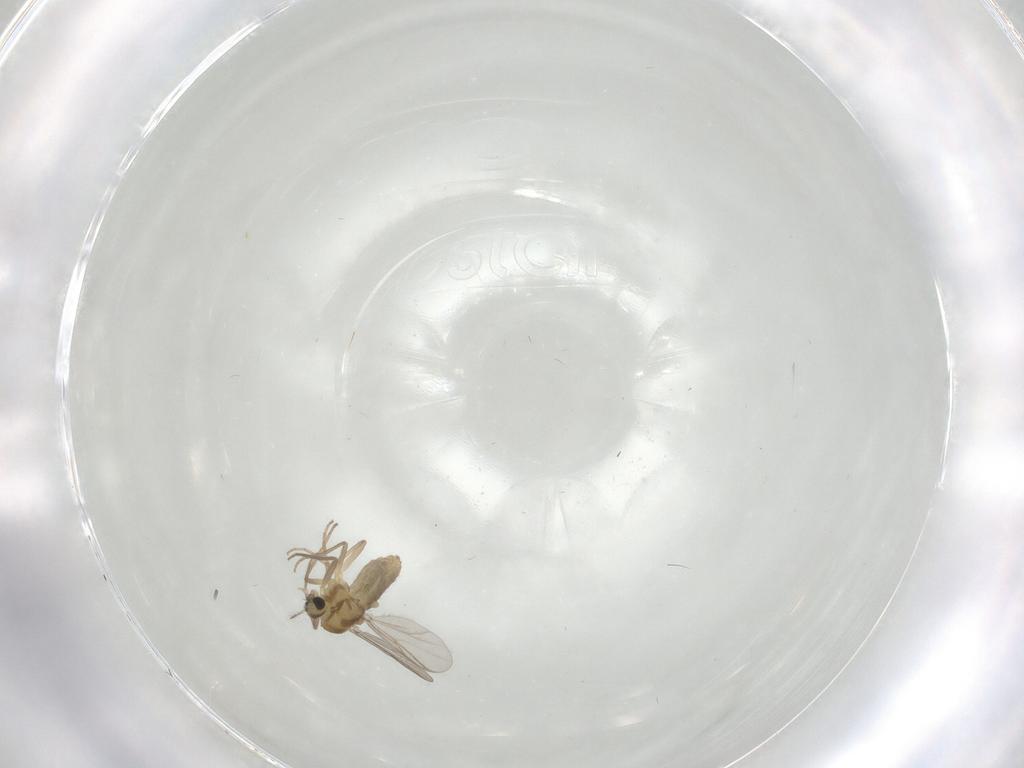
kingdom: Animalia
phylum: Arthropoda
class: Insecta
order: Diptera
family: Chironomidae
